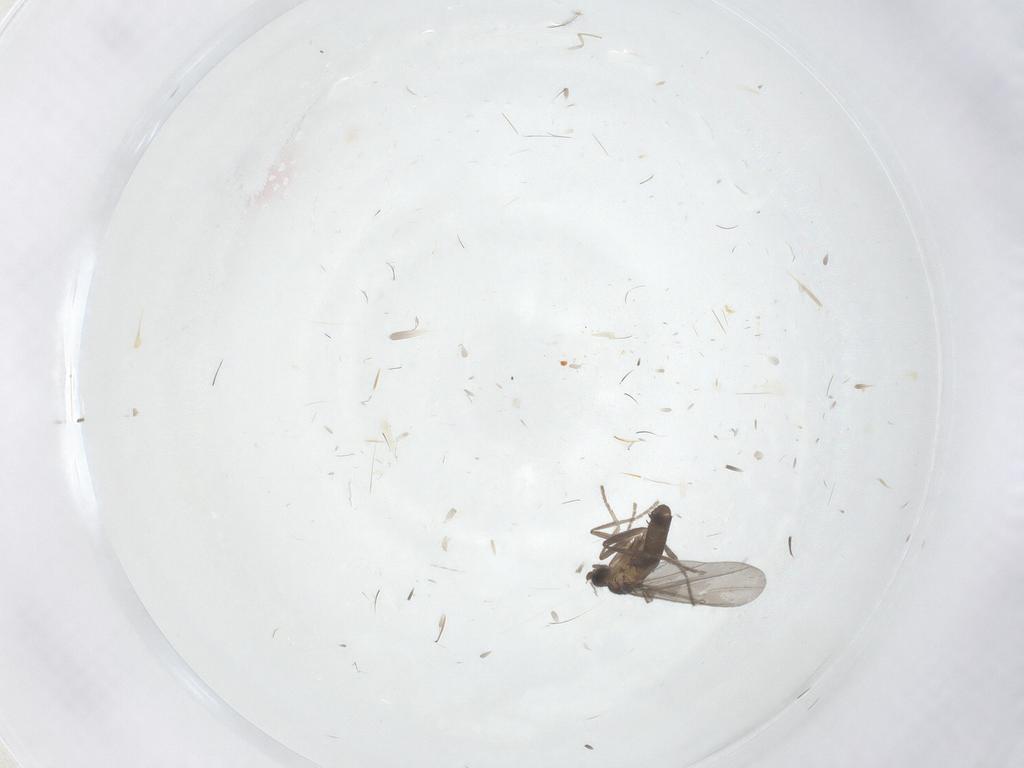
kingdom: Animalia
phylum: Arthropoda
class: Insecta
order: Diptera
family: Phoridae
